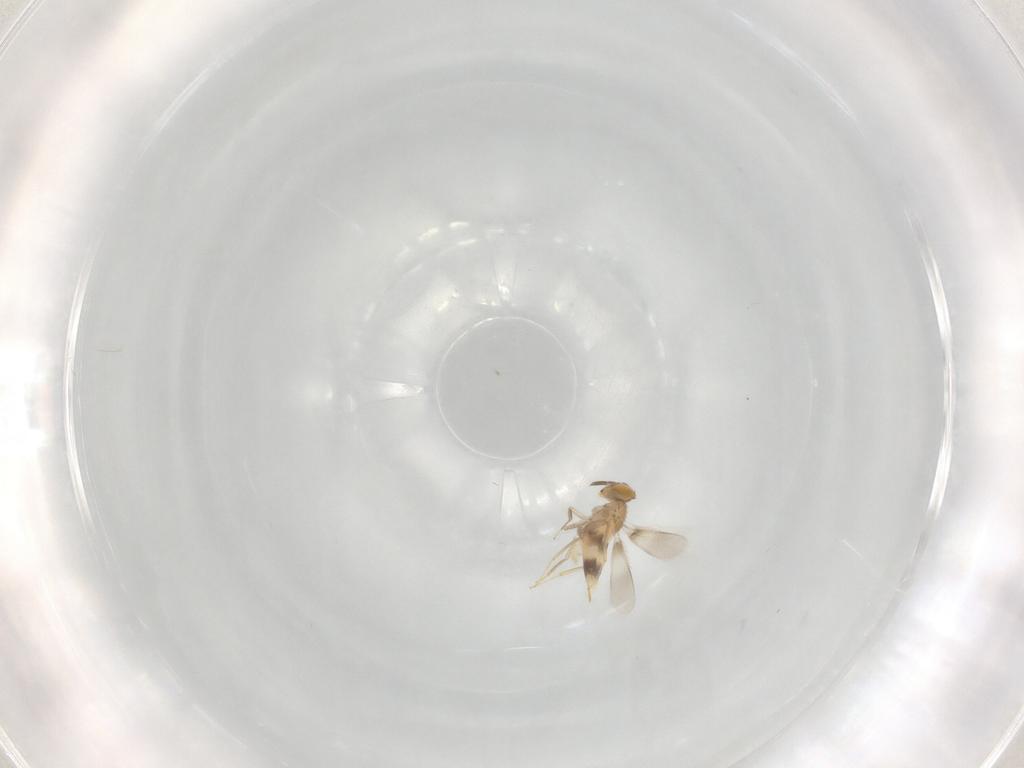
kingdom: Animalia
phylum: Arthropoda
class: Insecta
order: Hymenoptera
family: Aphelinidae
